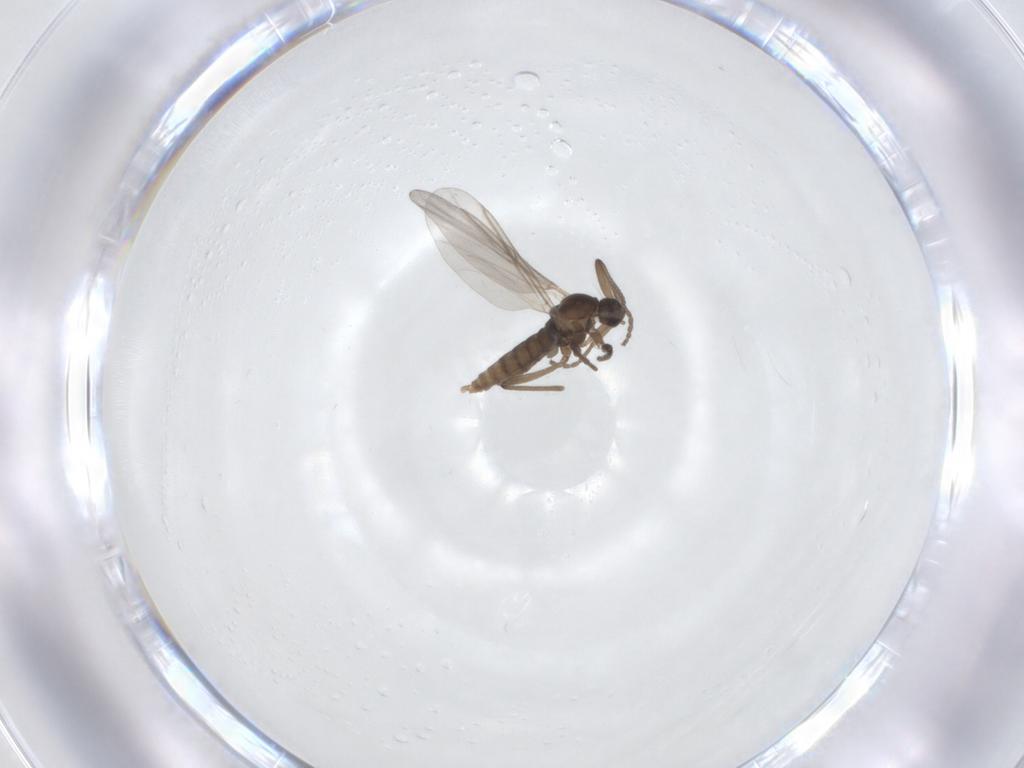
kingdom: Animalia
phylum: Arthropoda
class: Insecta
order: Diptera
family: Cecidomyiidae
